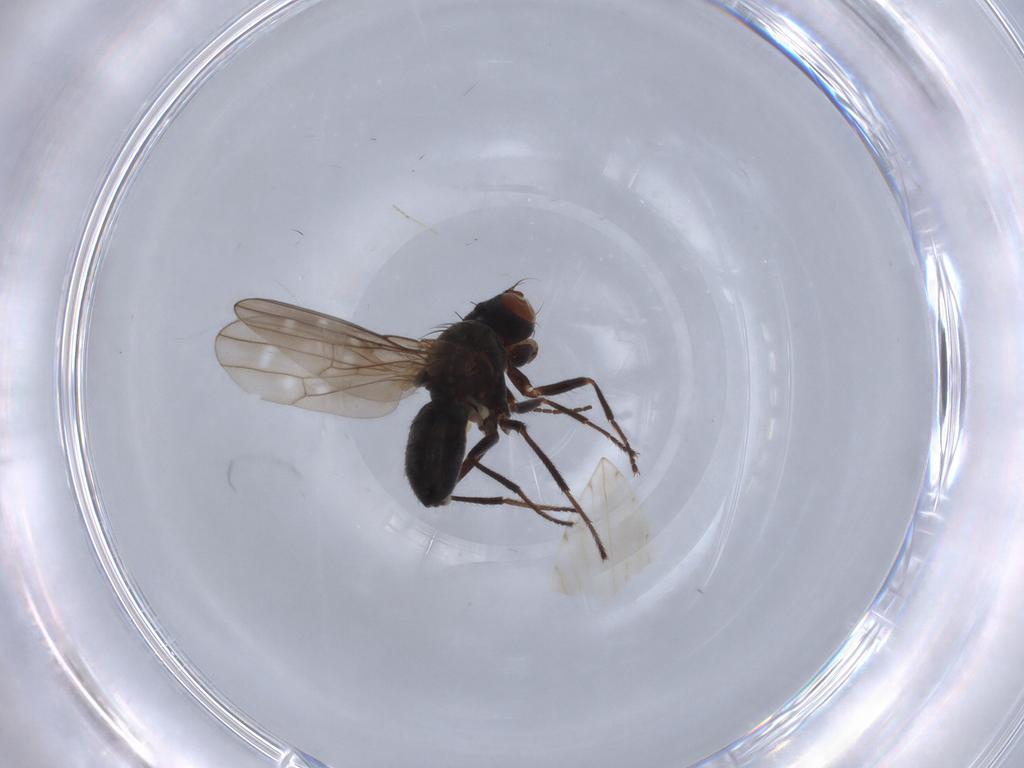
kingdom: Animalia
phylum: Arthropoda
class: Insecta
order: Diptera
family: Ephydridae
